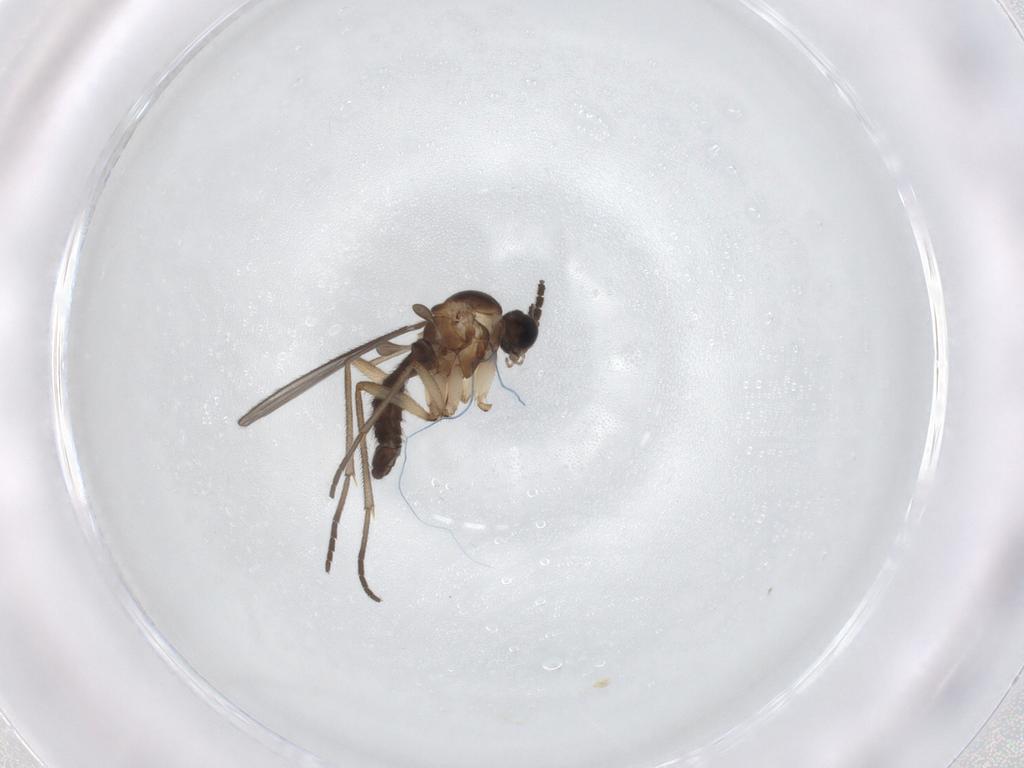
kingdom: Animalia
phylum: Arthropoda
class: Insecta
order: Diptera
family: Sciaridae
